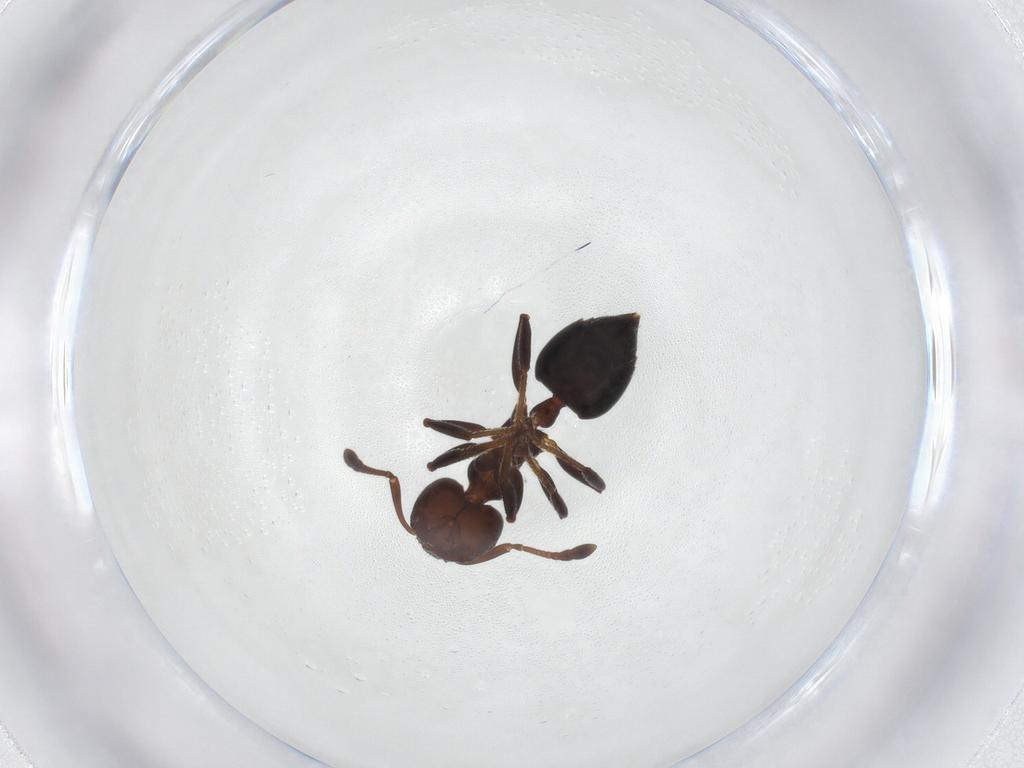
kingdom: Animalia
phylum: Arthropoda
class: Insecta
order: Hymenoptera
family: Formicidae
